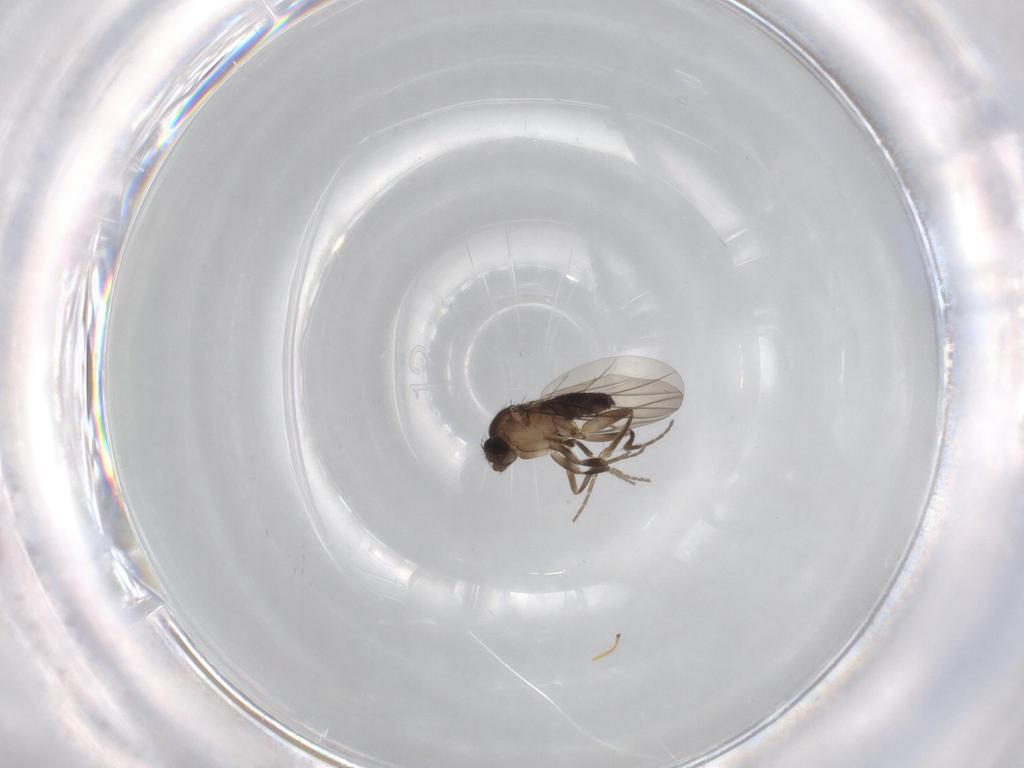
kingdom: Animalia
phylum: Arthropoda
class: Insecta
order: Diptera
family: Phoridae
